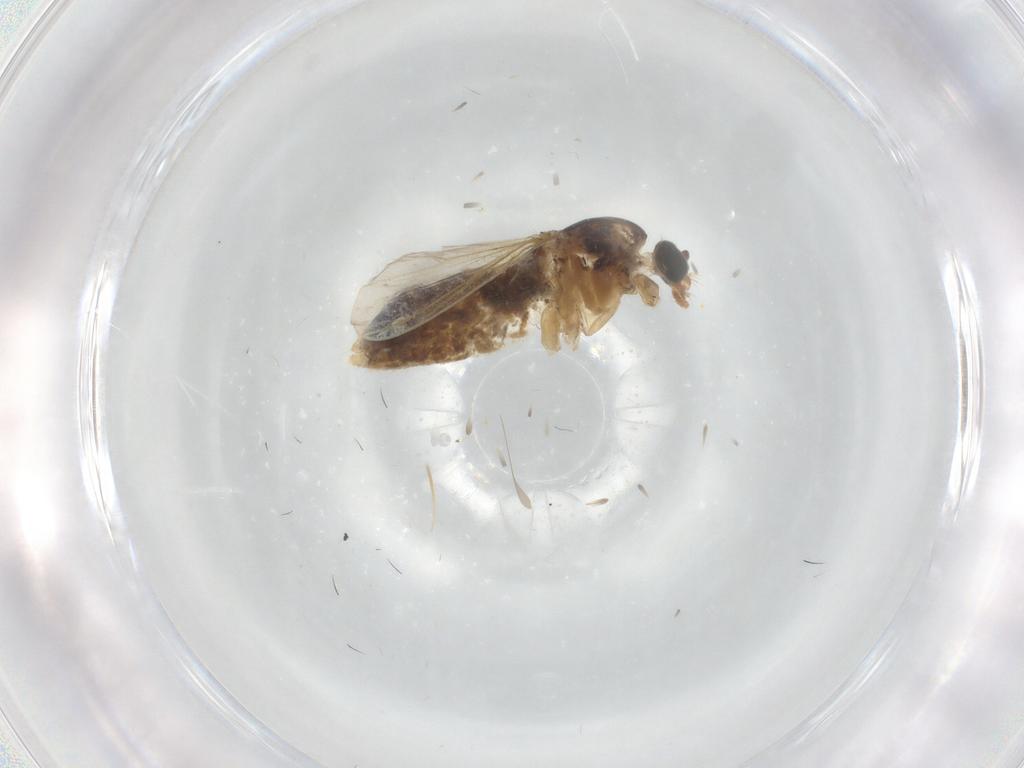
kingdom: Animalia
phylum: Arthropoda
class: Insecta
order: Diptera
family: Chironomidae
